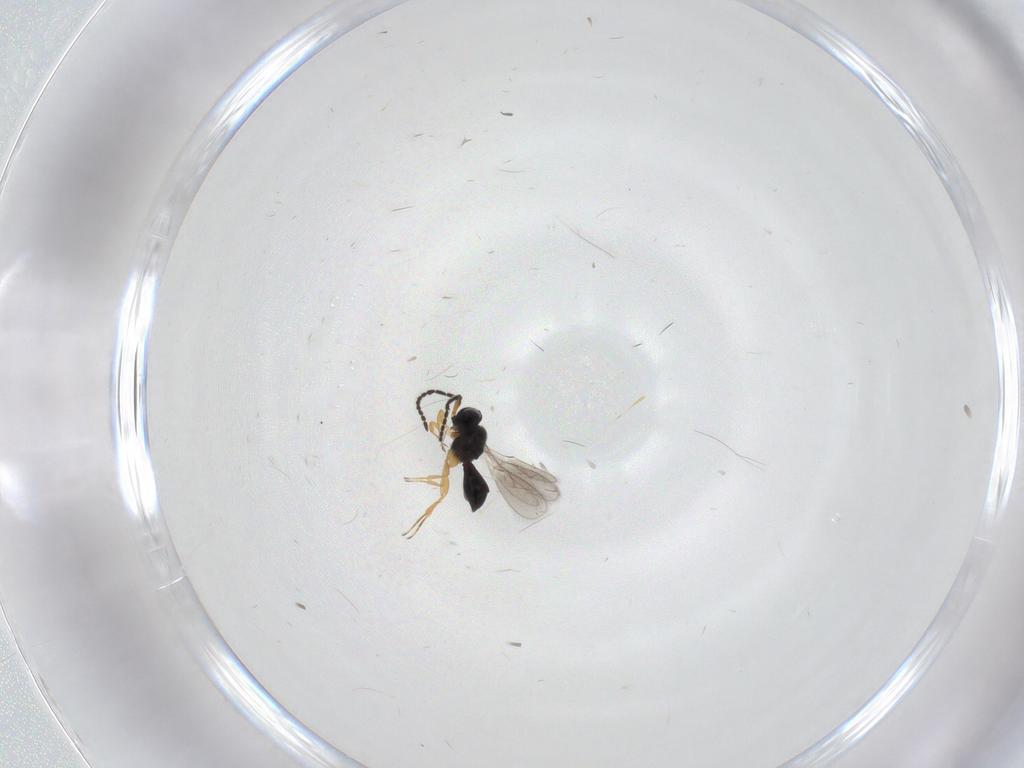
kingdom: Animalia
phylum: Arthropoda
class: Insecta
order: Hymenoptera
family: Scelionidae
